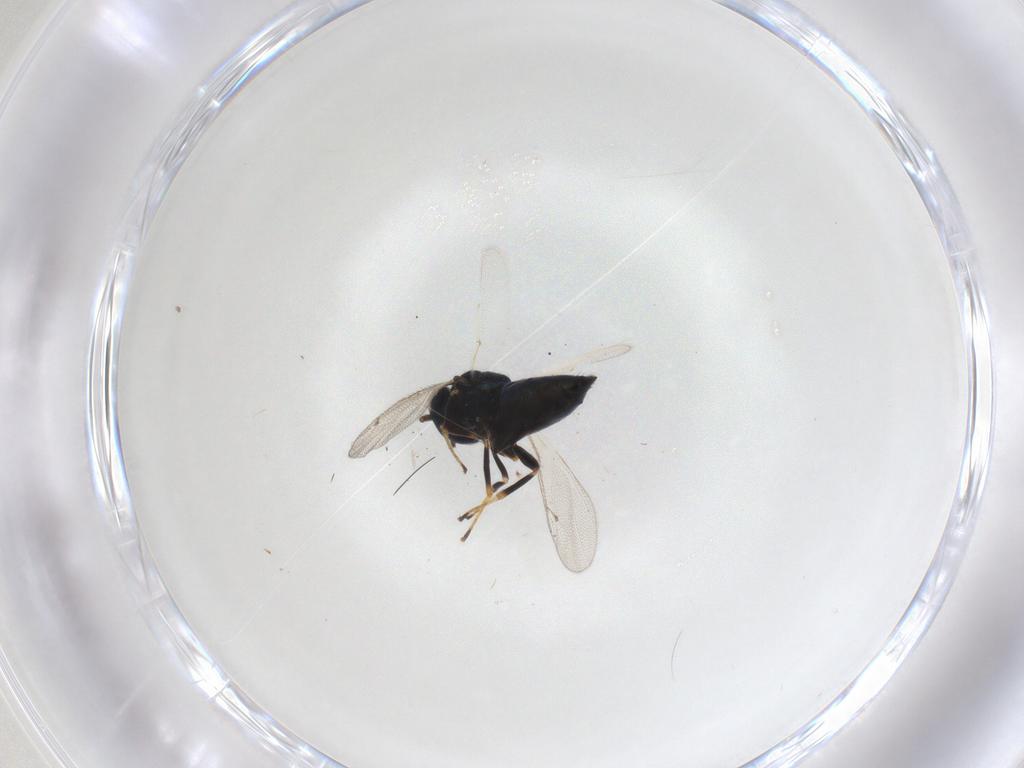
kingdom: Animalia
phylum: Arthropoda
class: Insecta
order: Hymenoptera
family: Pteromalidae
